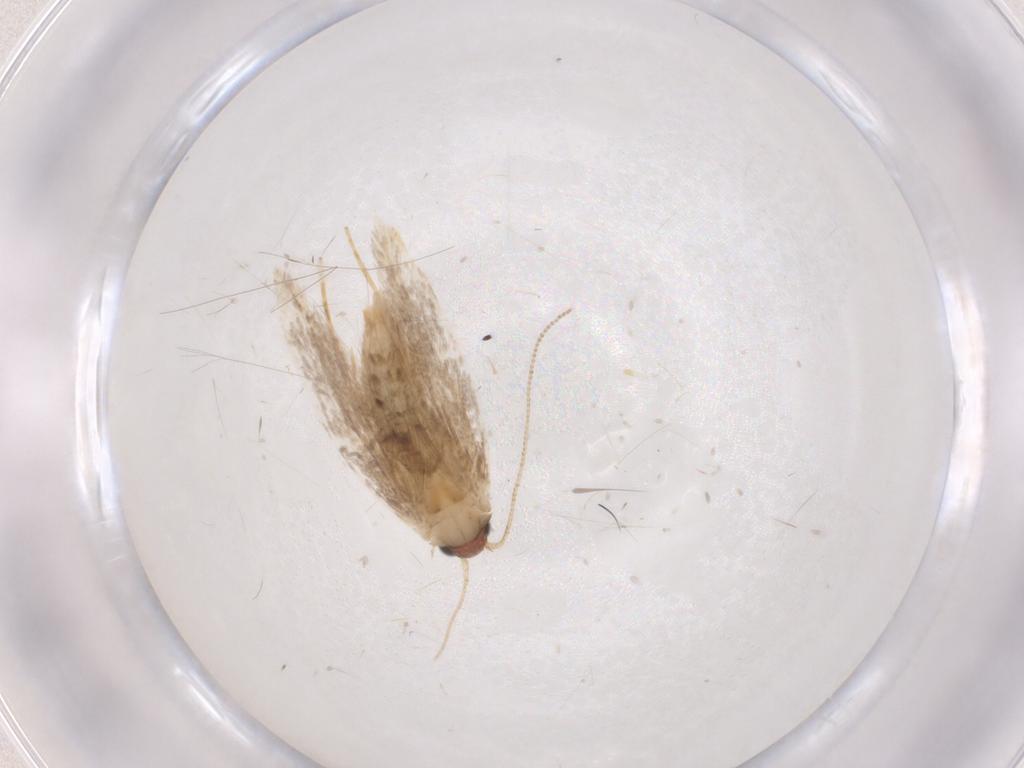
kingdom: Animalia
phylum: Arthropoda
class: Insecta
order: Lepidoptera
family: Tineidae
